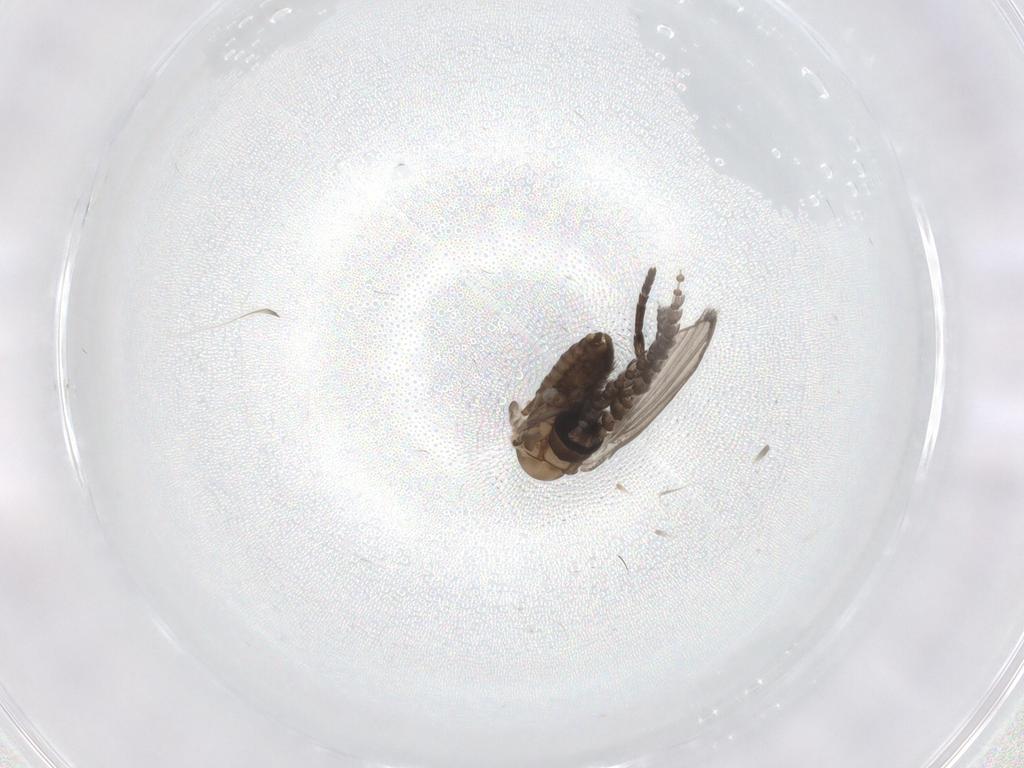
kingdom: Animalia
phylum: Arthropoda
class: Insecta
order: Diptera
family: Psychodidae
